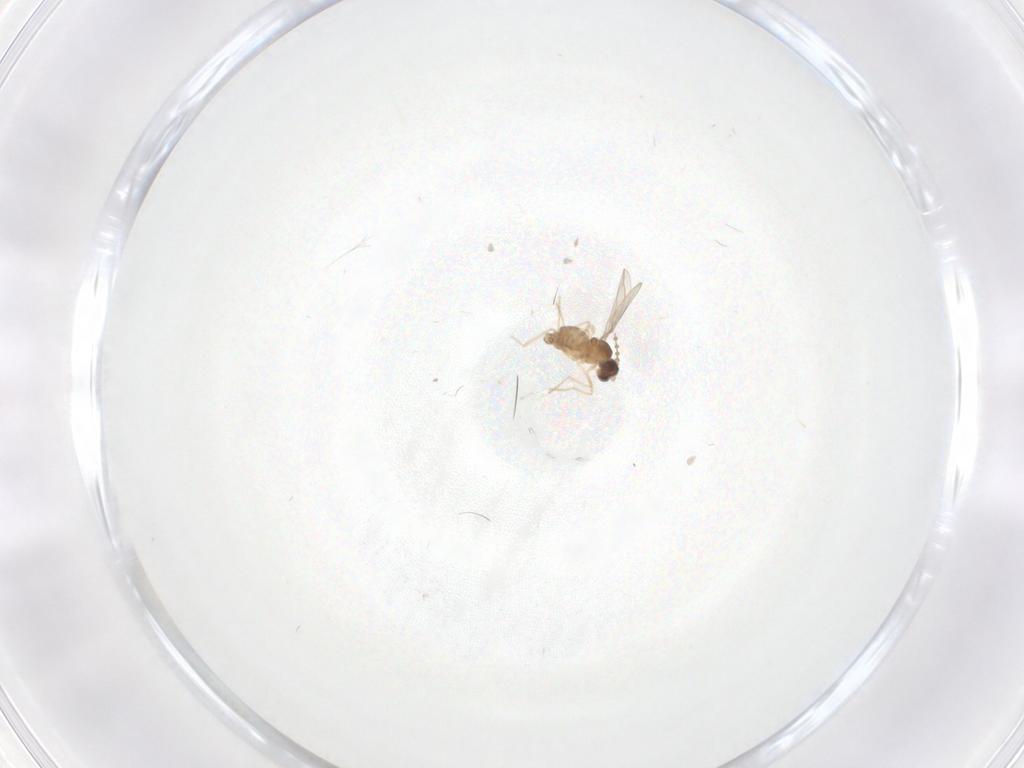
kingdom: Animalia
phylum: Arthropoda
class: Insecta
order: Diptera
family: Cecidomyiidae
